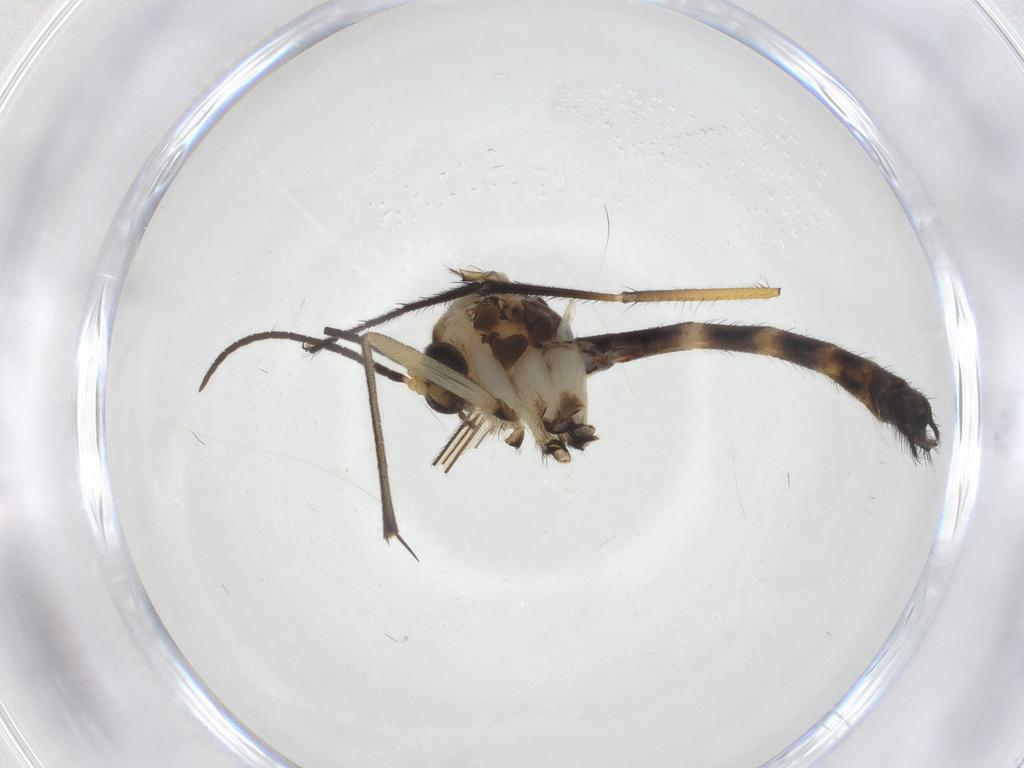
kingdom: Animalia
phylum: Arthropoda
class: Insecta
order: Diptera
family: Empididae
